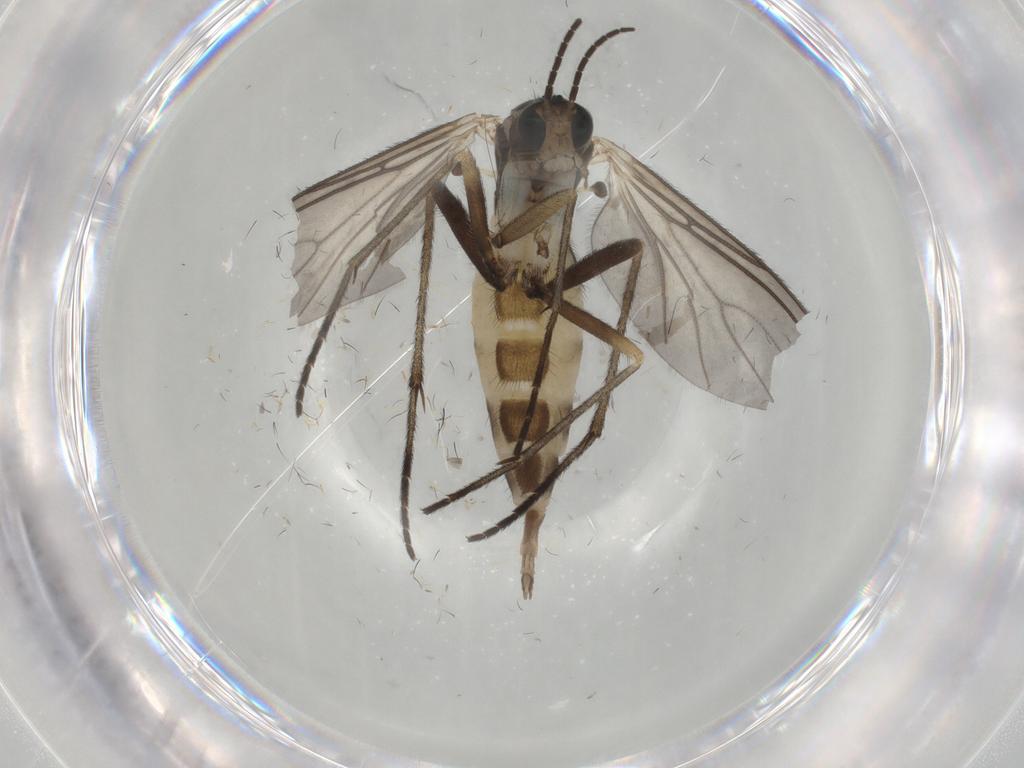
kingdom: Animalia
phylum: Arthropoda
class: Insecta
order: Diptera
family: Sciaridae
